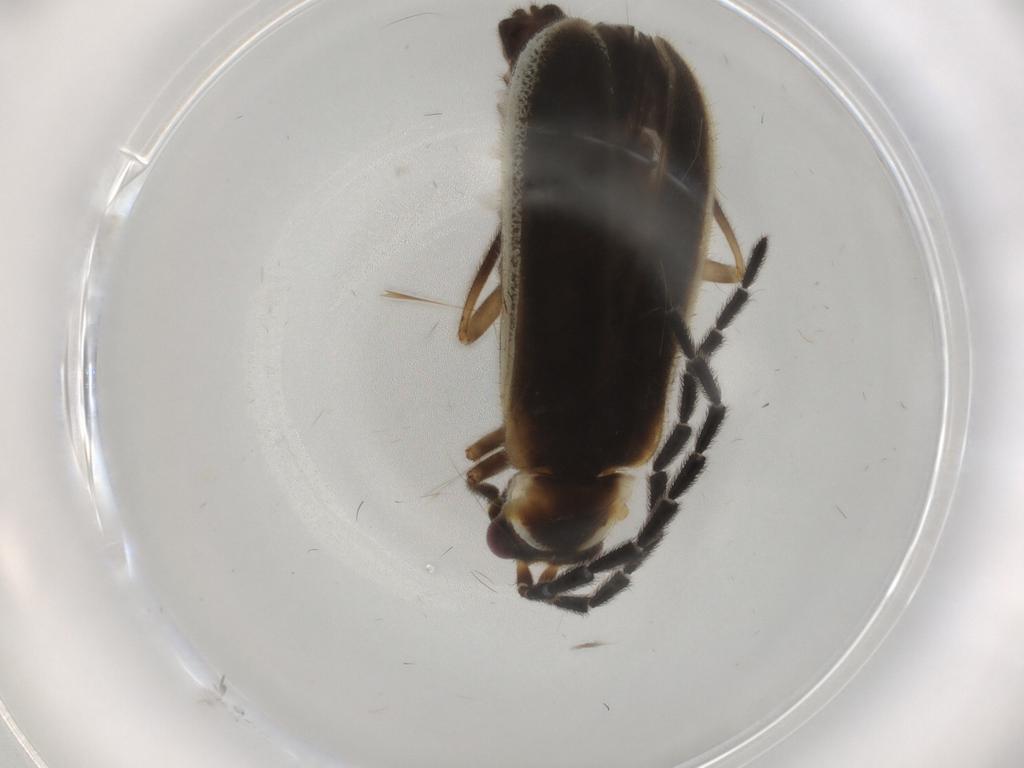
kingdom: Animalia
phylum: Arthropoda
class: Insecta
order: Coleoptera
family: Cantharidae
